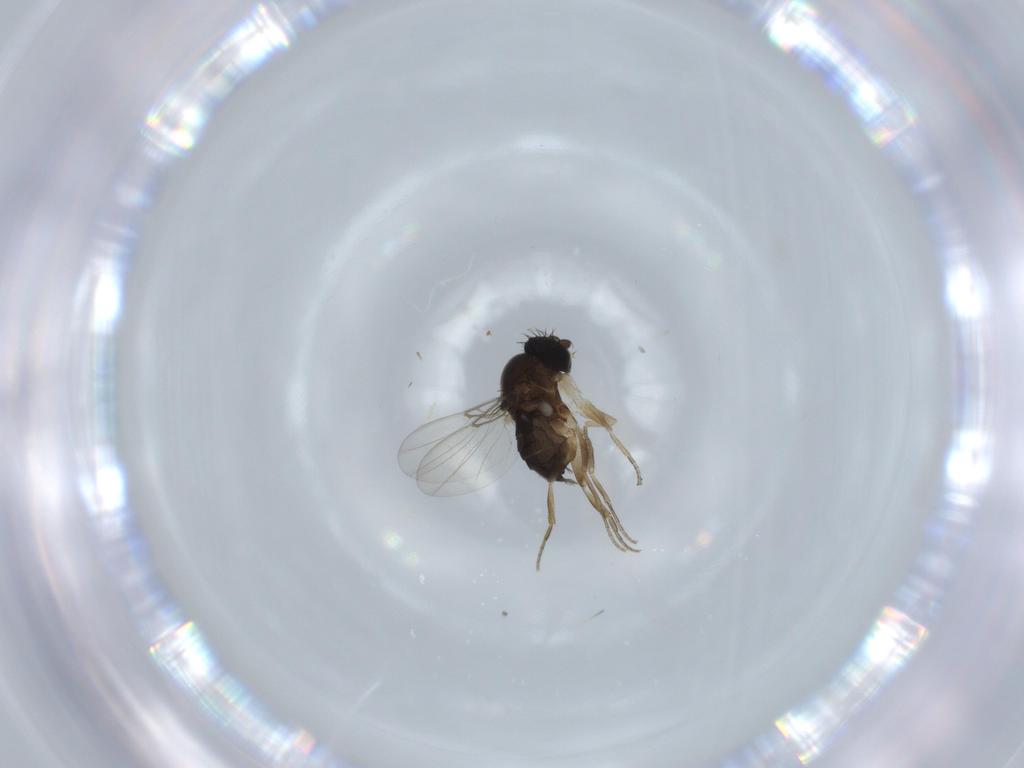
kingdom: Animalia
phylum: Arthropoda
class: Insecta
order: Diptera
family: Phoridae
